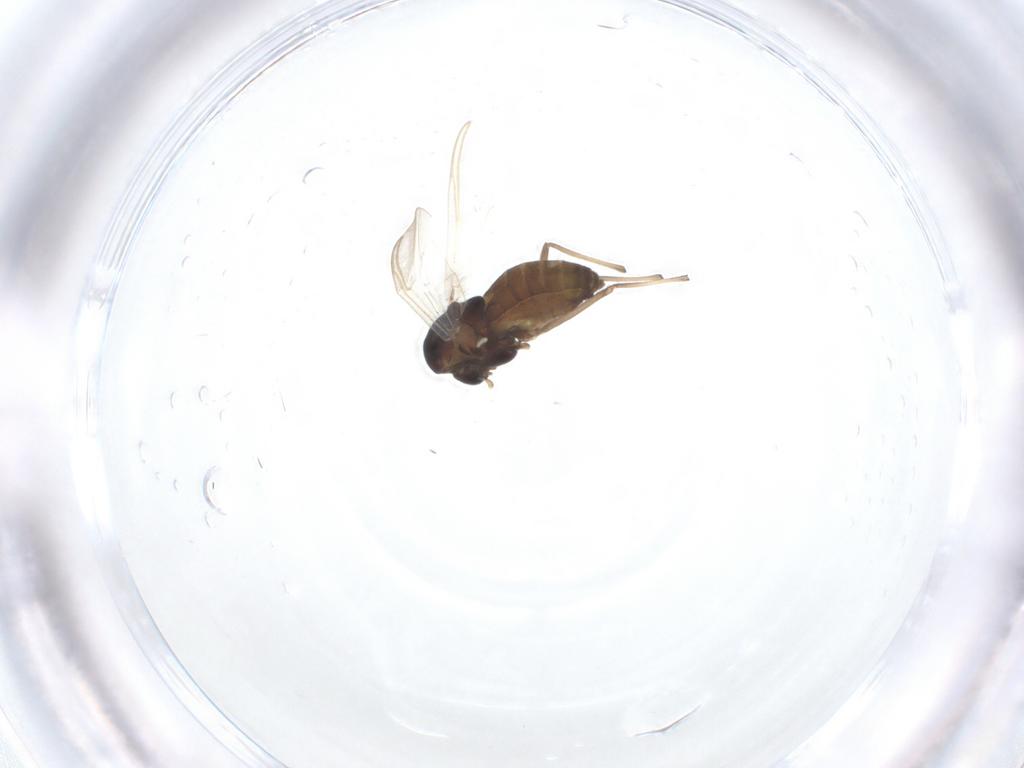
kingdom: Animalia
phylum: Arthropoda
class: Insecta
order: Diptera
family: Chironomidae
